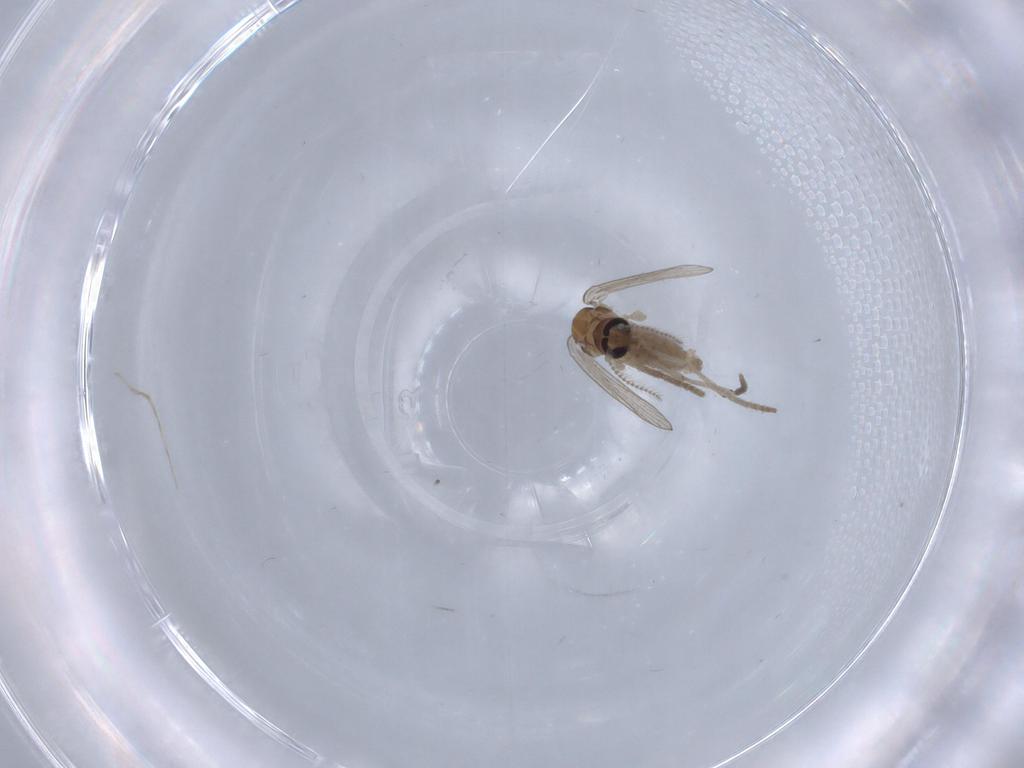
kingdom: Animalia
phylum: Arthropoda
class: Insecta
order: Diptera
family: Psychodidae
